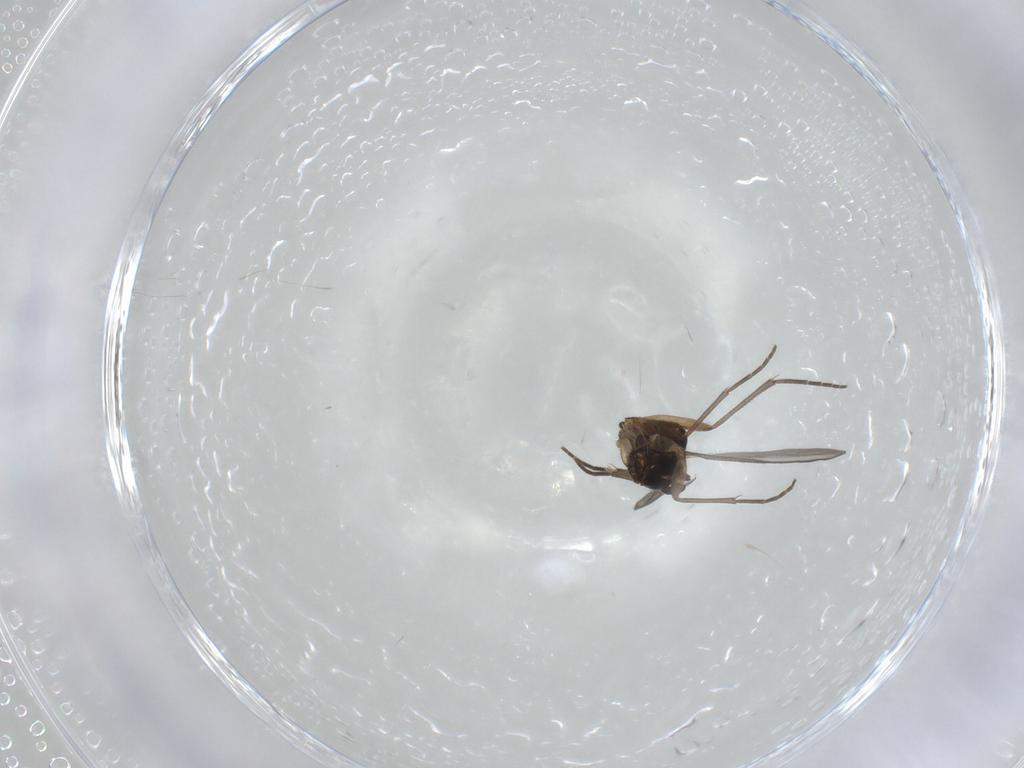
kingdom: Animalia
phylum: Arthropoda
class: Insecta
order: Diptera
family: Sciaridae
